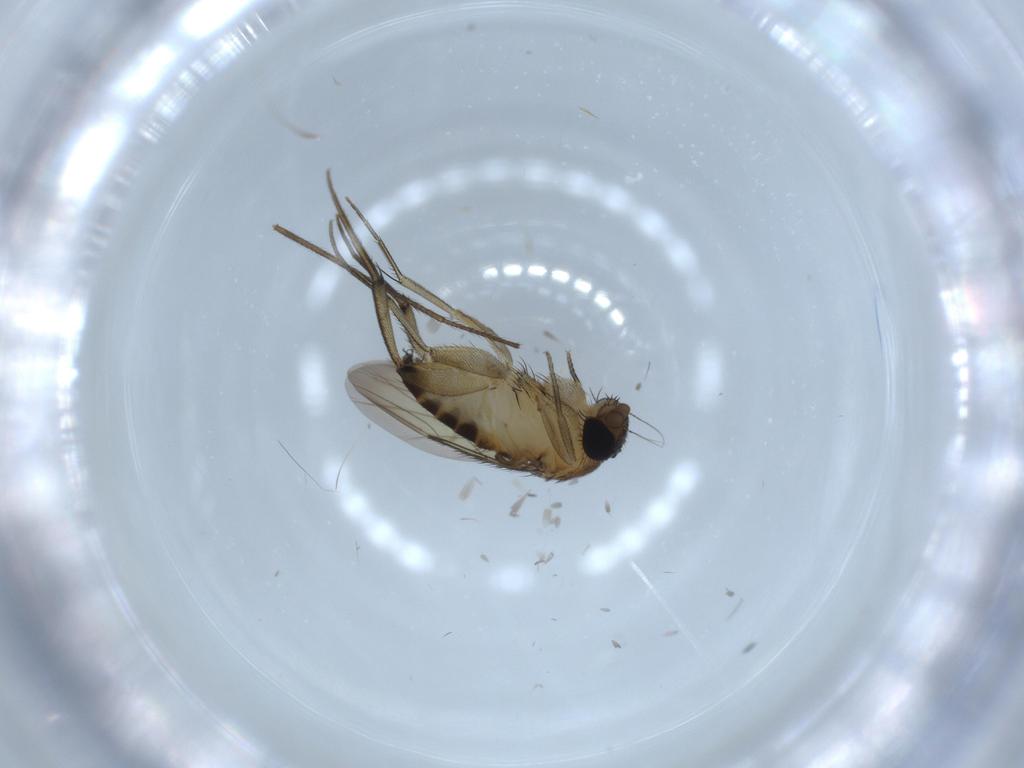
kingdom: Animalia
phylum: Arthropoda
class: Insecta
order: Diptera
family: Phoridae
